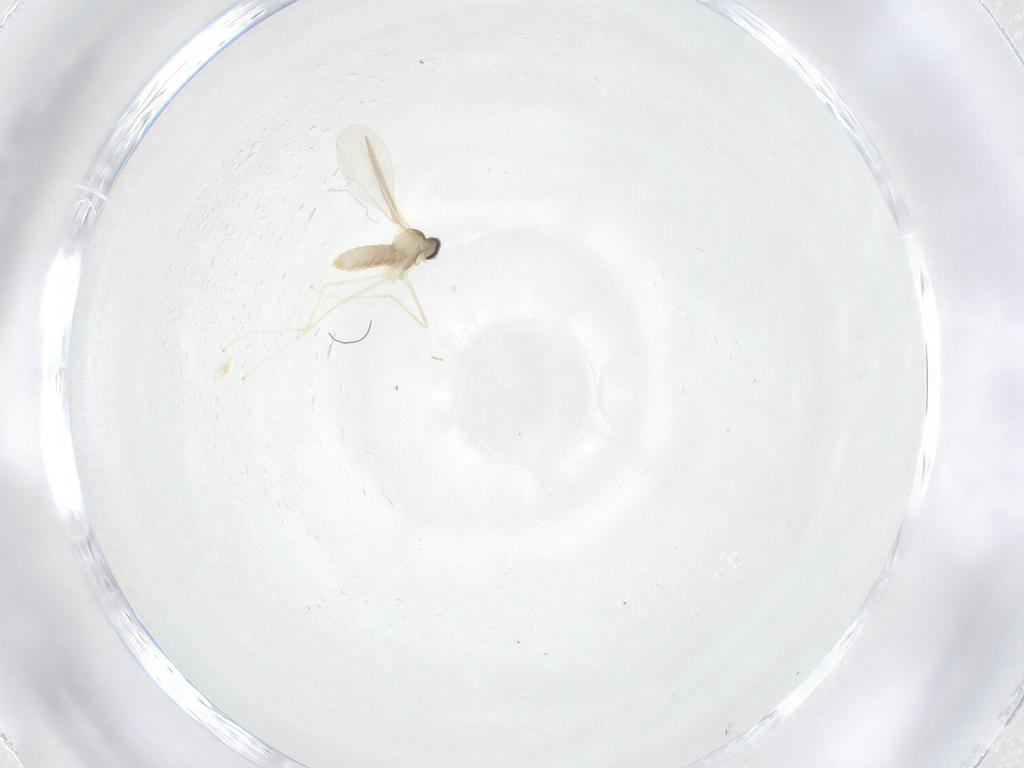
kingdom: Animalia
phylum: Arthropoda
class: Insecta
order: Diptera
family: Cecidomyiidae
